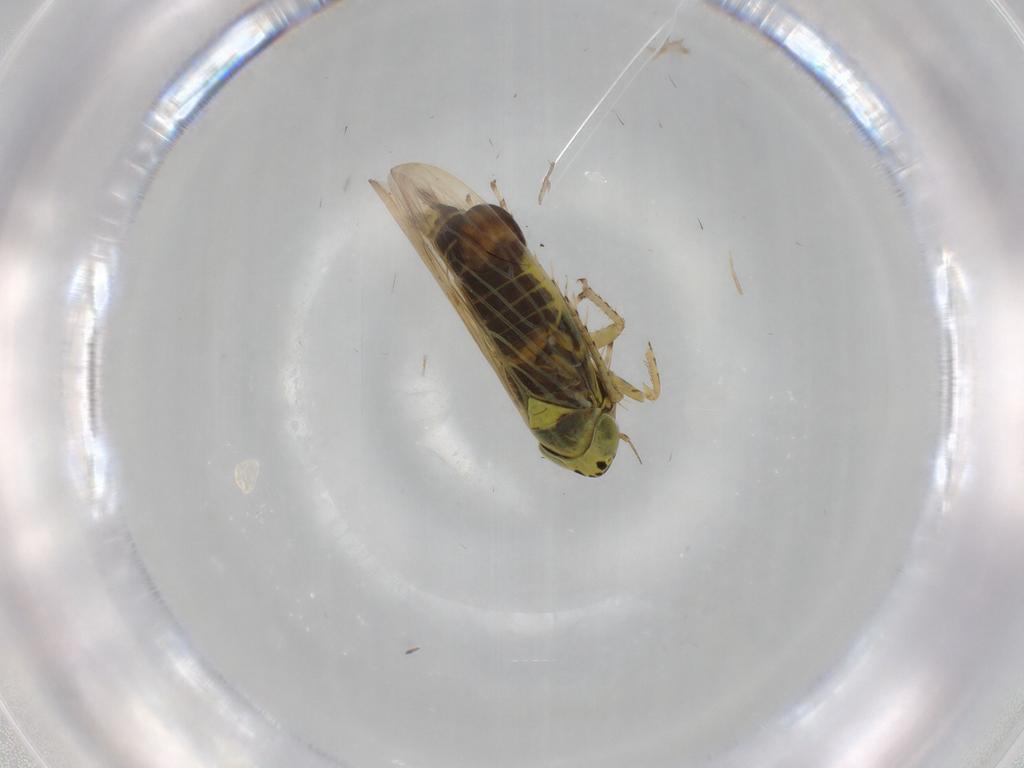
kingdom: Animalia
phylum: Arthropoda
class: Insecta
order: Hemiptera
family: Cicadellidae
